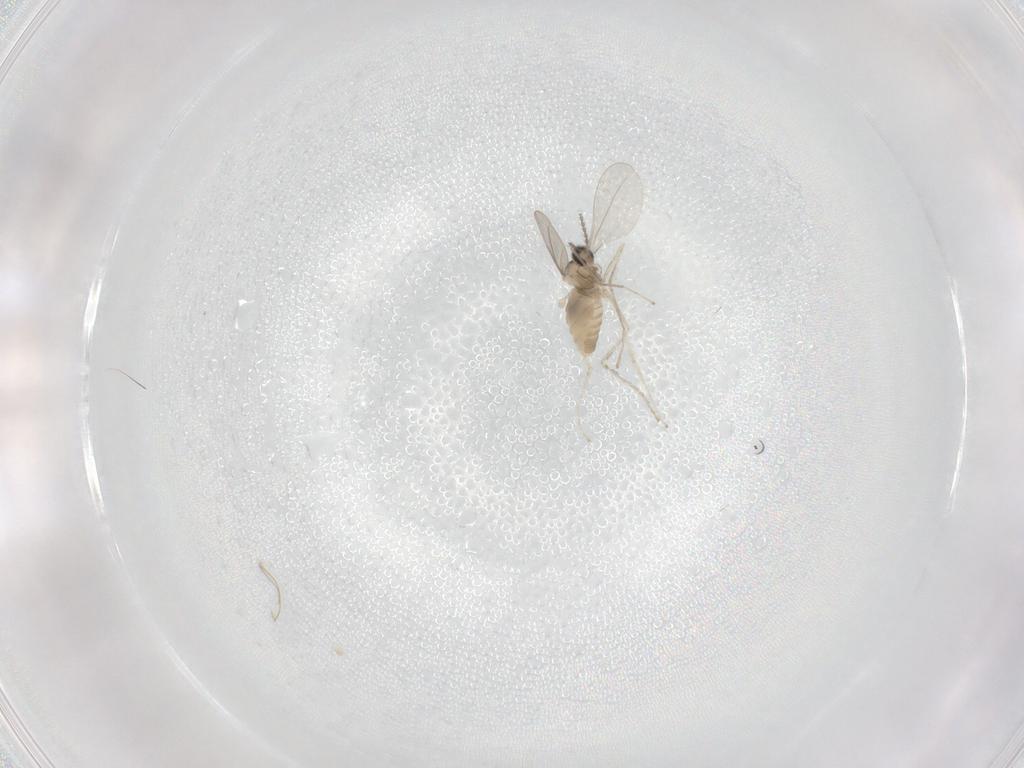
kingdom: Animalia
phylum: Arthropoda
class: Insecta
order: Diptera
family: Cecidomyiidae
